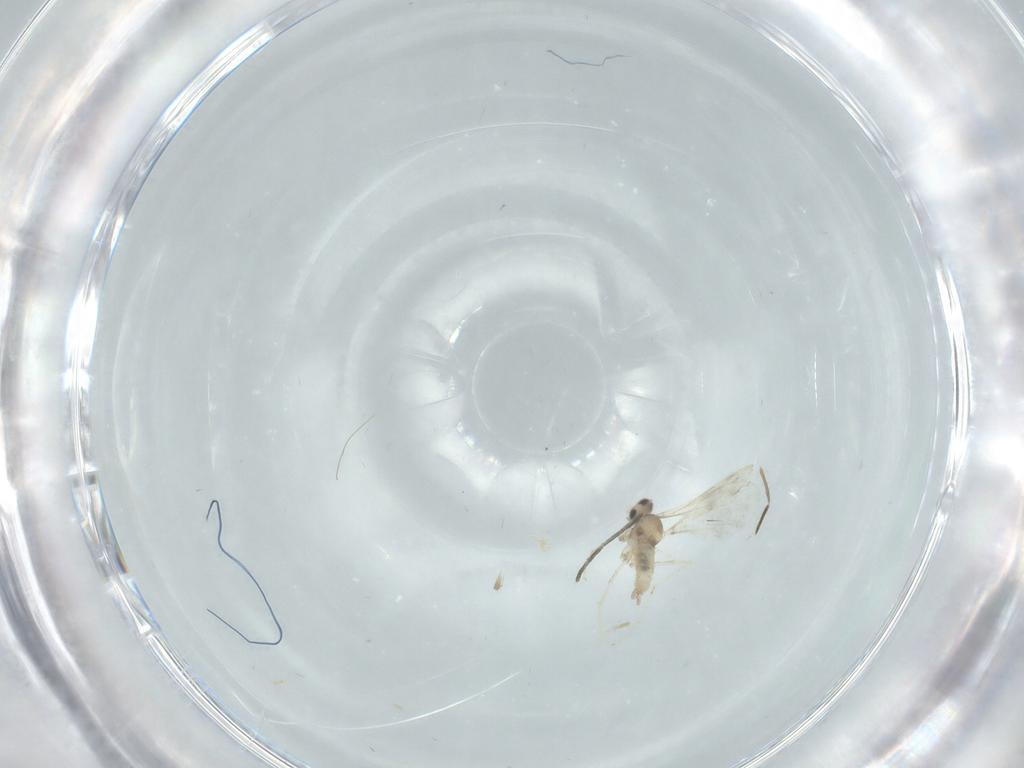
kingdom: Animalia
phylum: Arthropoda
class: Insecta
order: Diptera
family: Cecidomyiidae
